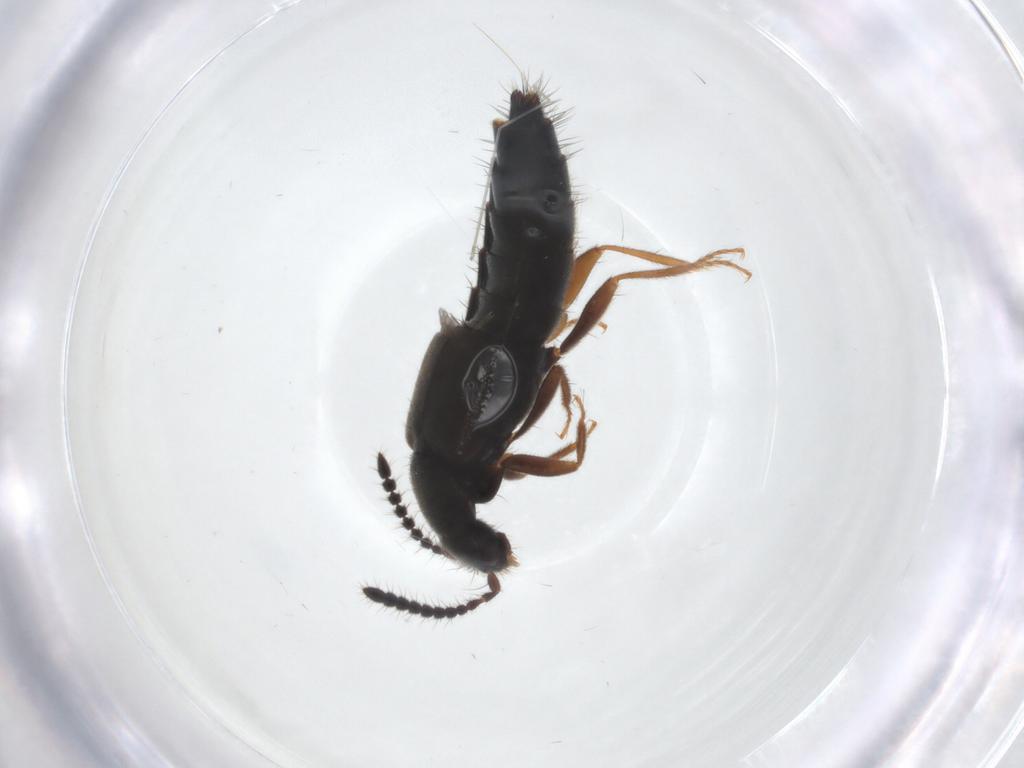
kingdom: Animalia
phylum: Arthropoda
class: Insecta
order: Coleoptera
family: Staphylinidae
